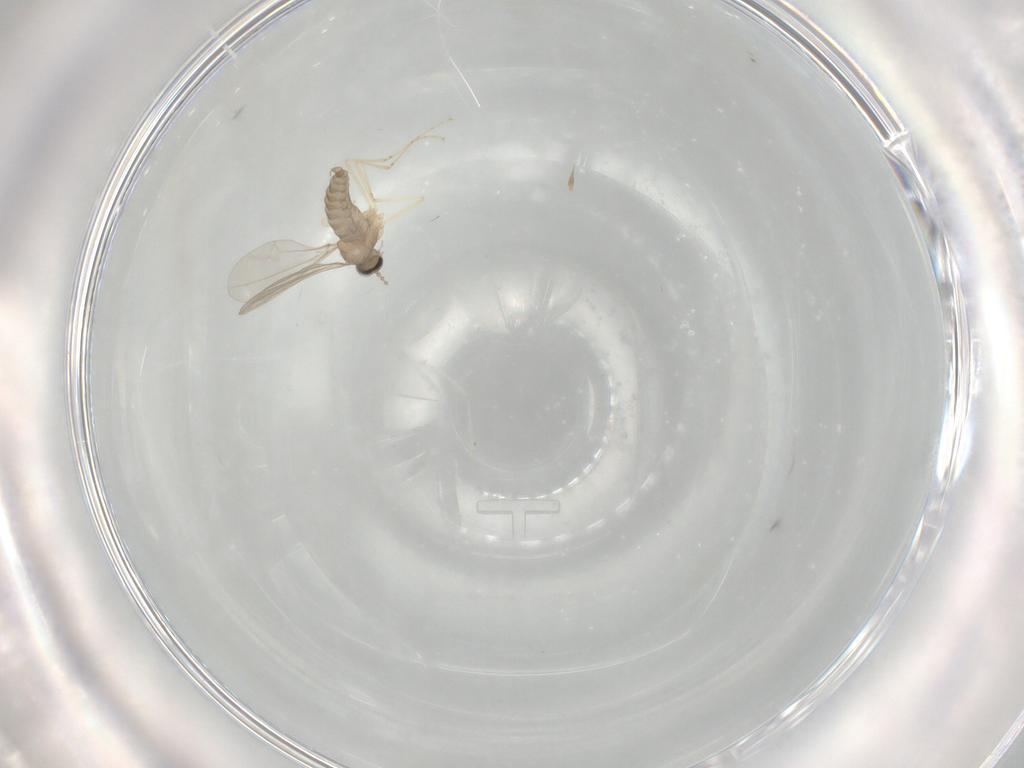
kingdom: Animalia
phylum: Arthropoda
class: Insecta
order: Diptera
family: Cecidomyiidae
